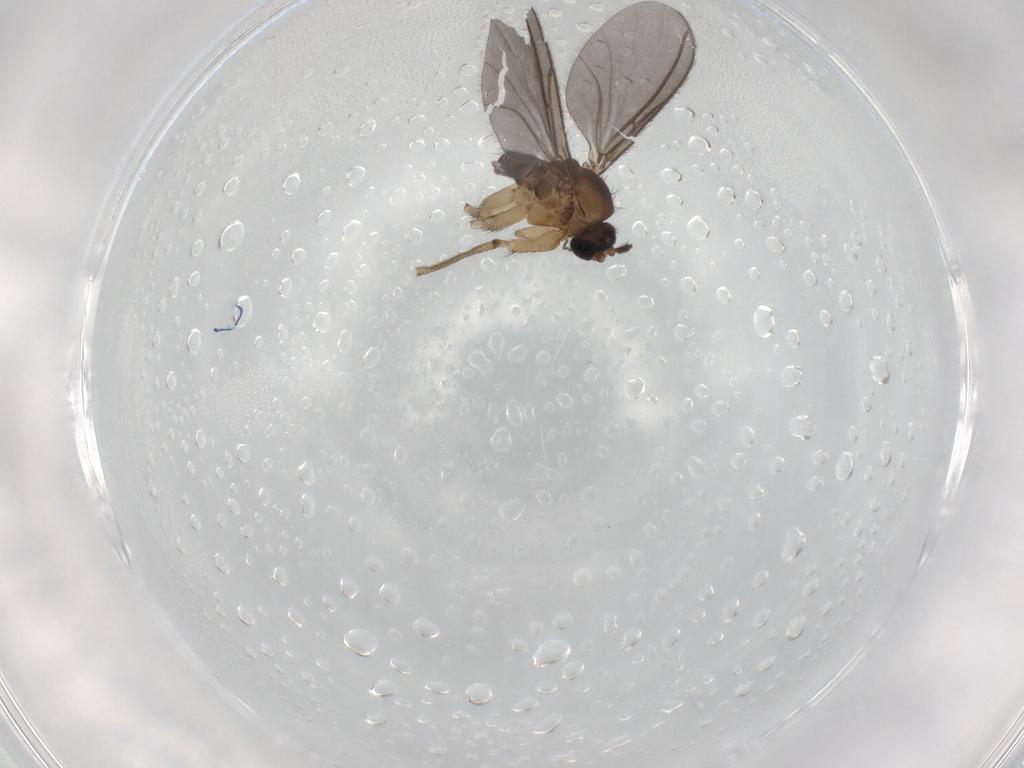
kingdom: Animalia
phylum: Arthropoda
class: Insecta
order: Diptera
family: Sciaridae
